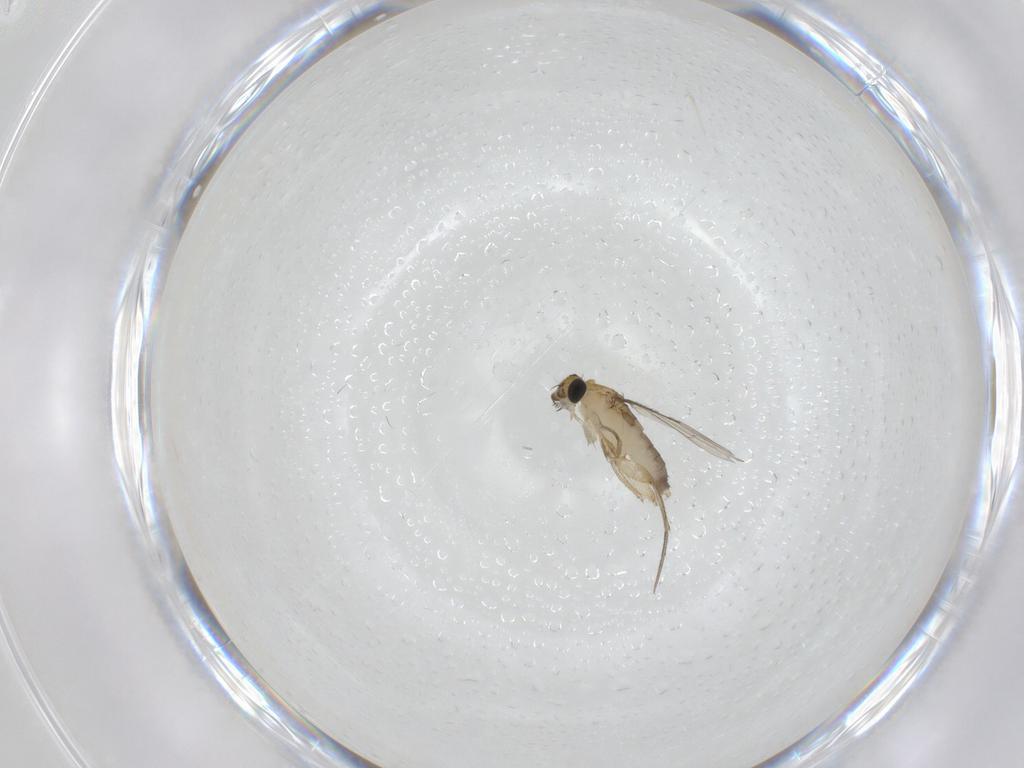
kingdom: Animalia
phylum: Arthropoda
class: Insecta
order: Diptera
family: Phoridae
